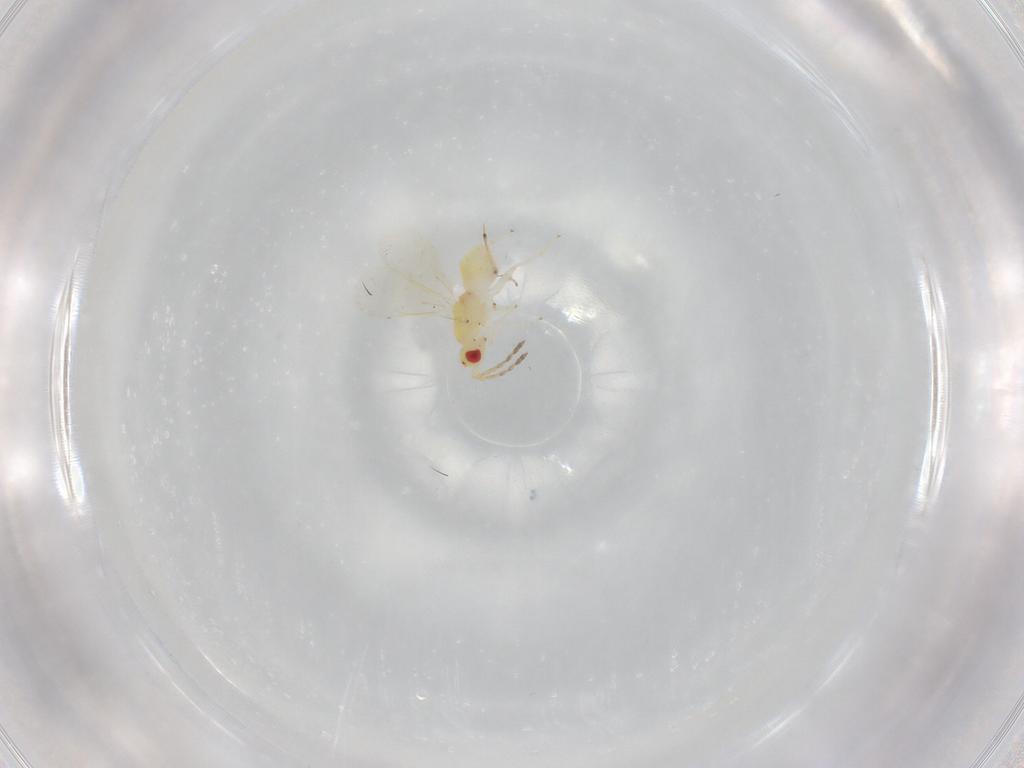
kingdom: Animalia
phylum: Arthropoda
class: Insecta
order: Hymenoptera
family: Eulophidae
